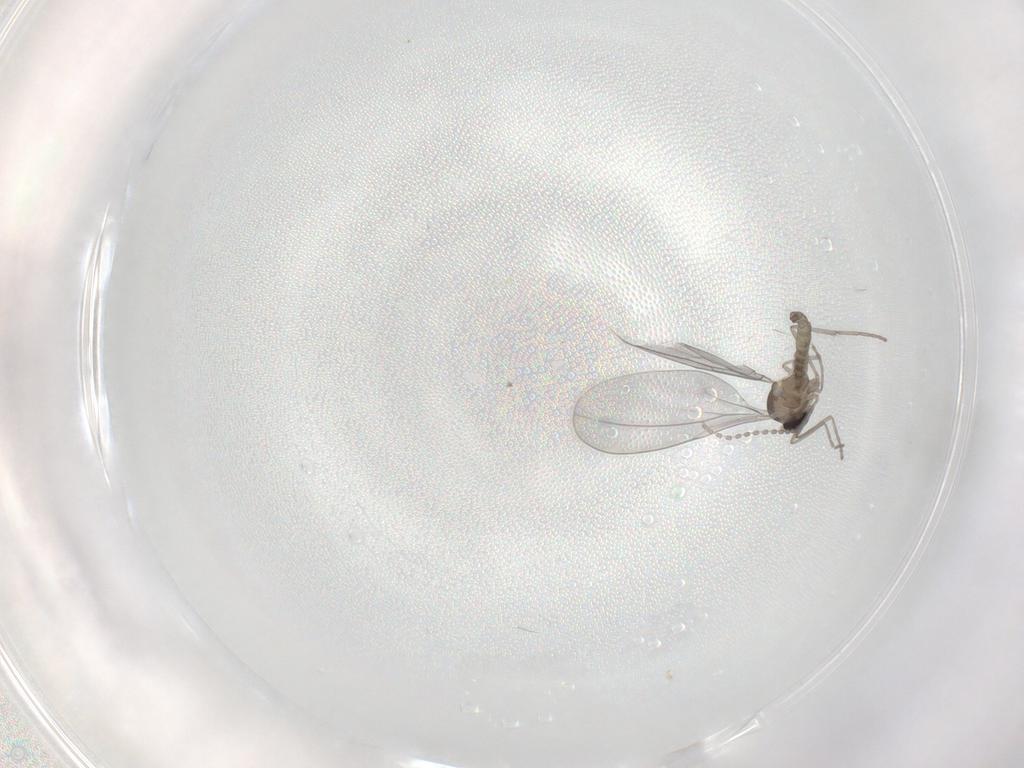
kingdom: Animalia
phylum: Arthropoda
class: Insecta
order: Diptera
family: Cecidomyiidae
